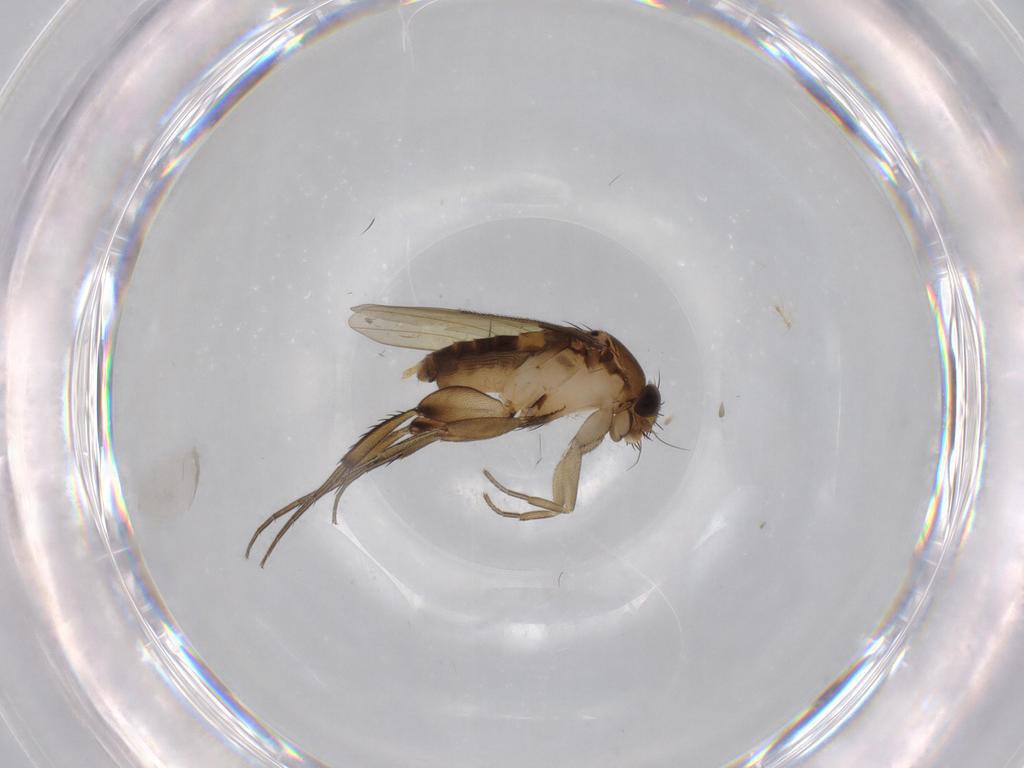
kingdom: Animalia
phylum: Arthropoda
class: Insecta
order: Diptera
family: Phoridae
